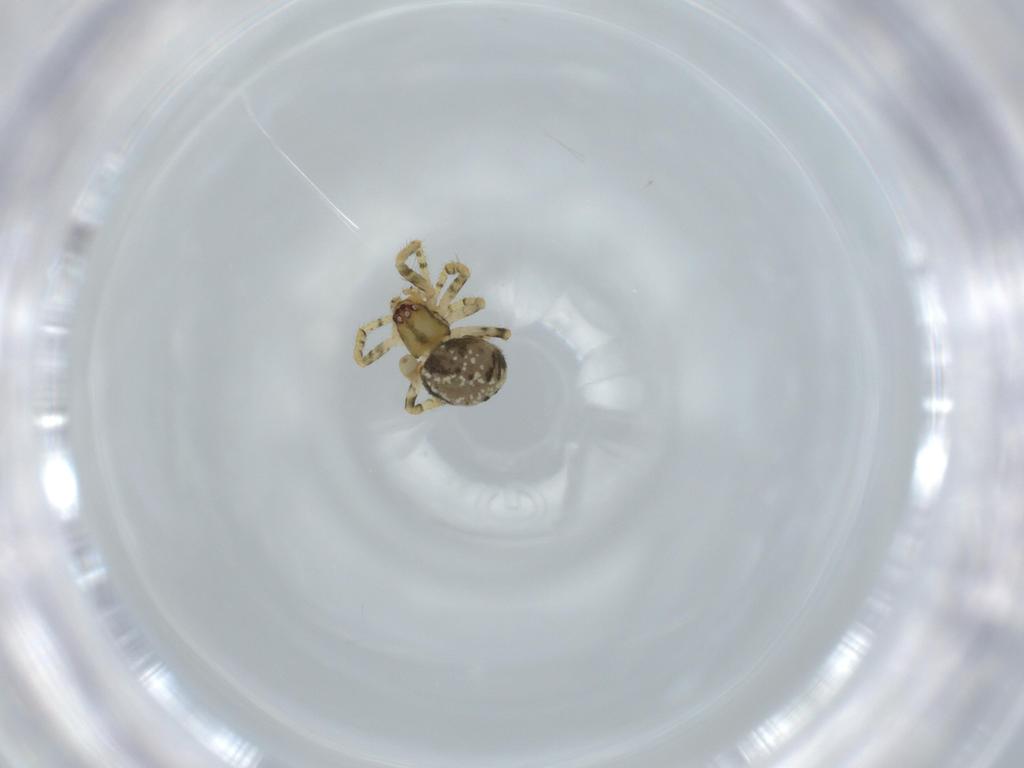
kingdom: Animalia
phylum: Arthropoda
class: Arachnida
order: Araneae
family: Theridiidae
